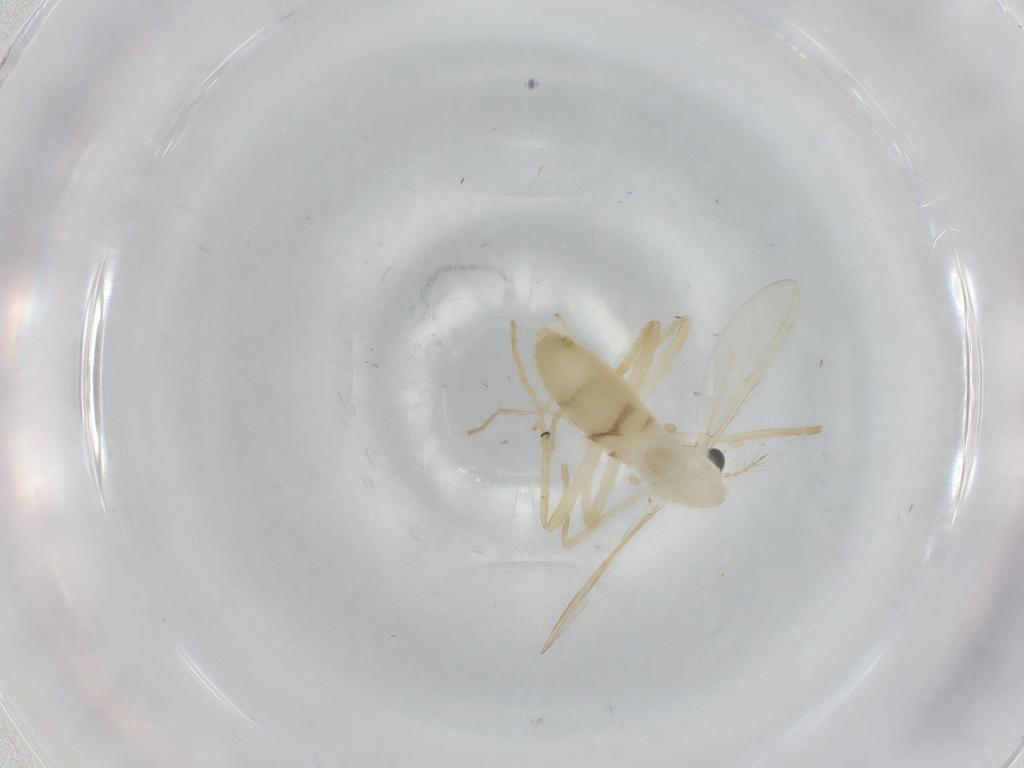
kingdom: Animalia
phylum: Arthropoda
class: Insecta
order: Diptera
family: Chironomidae
